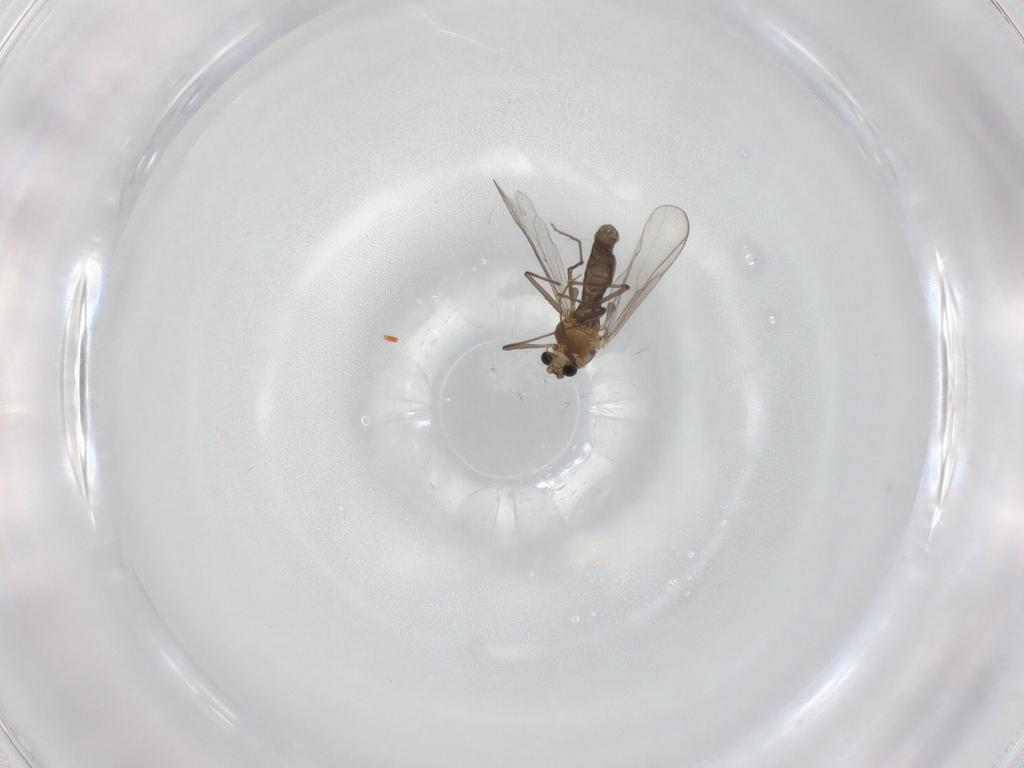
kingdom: Animalia
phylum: Arthropoda
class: Insecta
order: Diptera
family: Chironomidae
